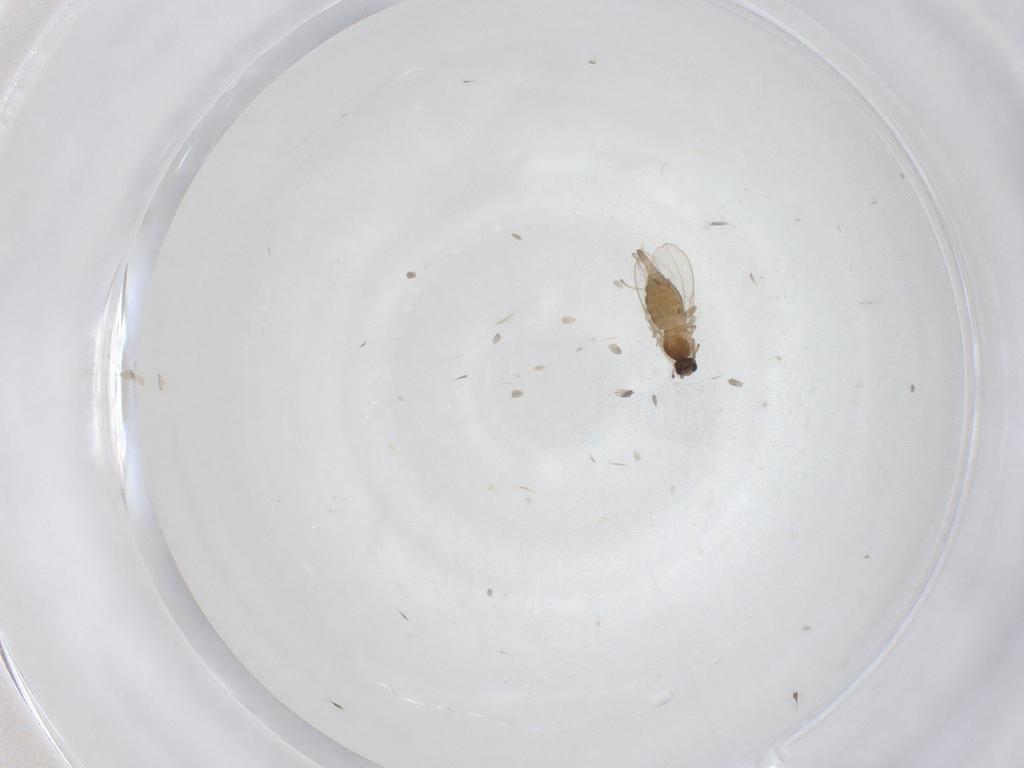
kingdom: Animalia
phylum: Arthropoda
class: Insecta
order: Diptera
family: Cecidomyiidae
